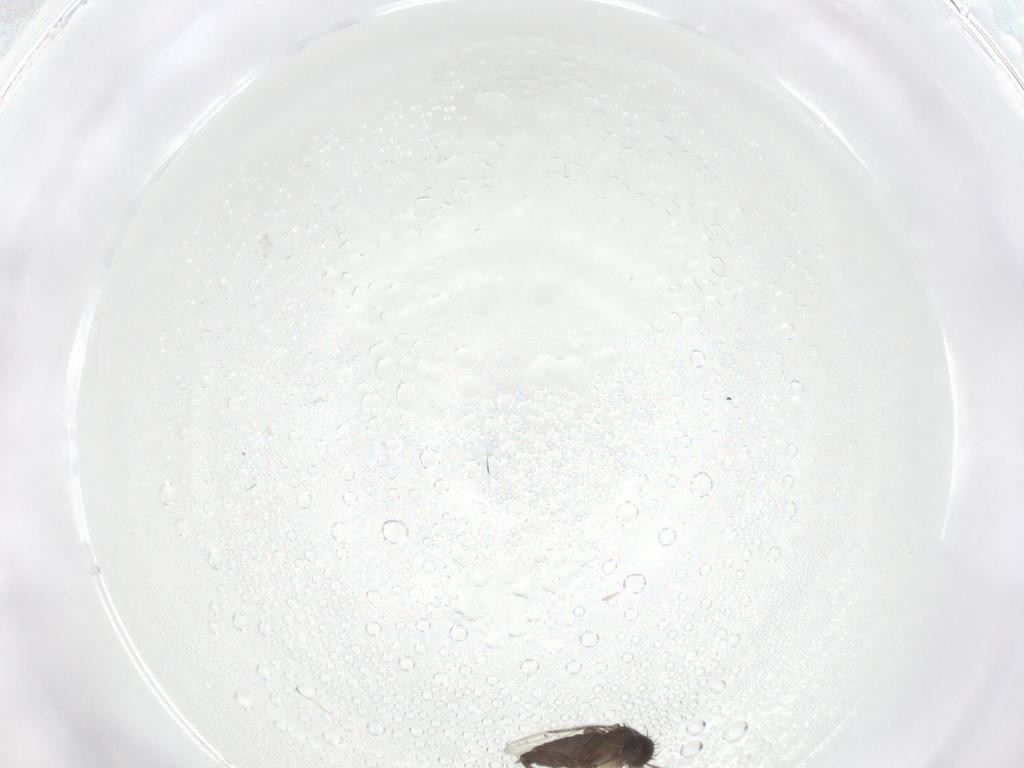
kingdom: Animalia
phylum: Arthropoda
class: Insecta
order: Diptera
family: Phoridae
